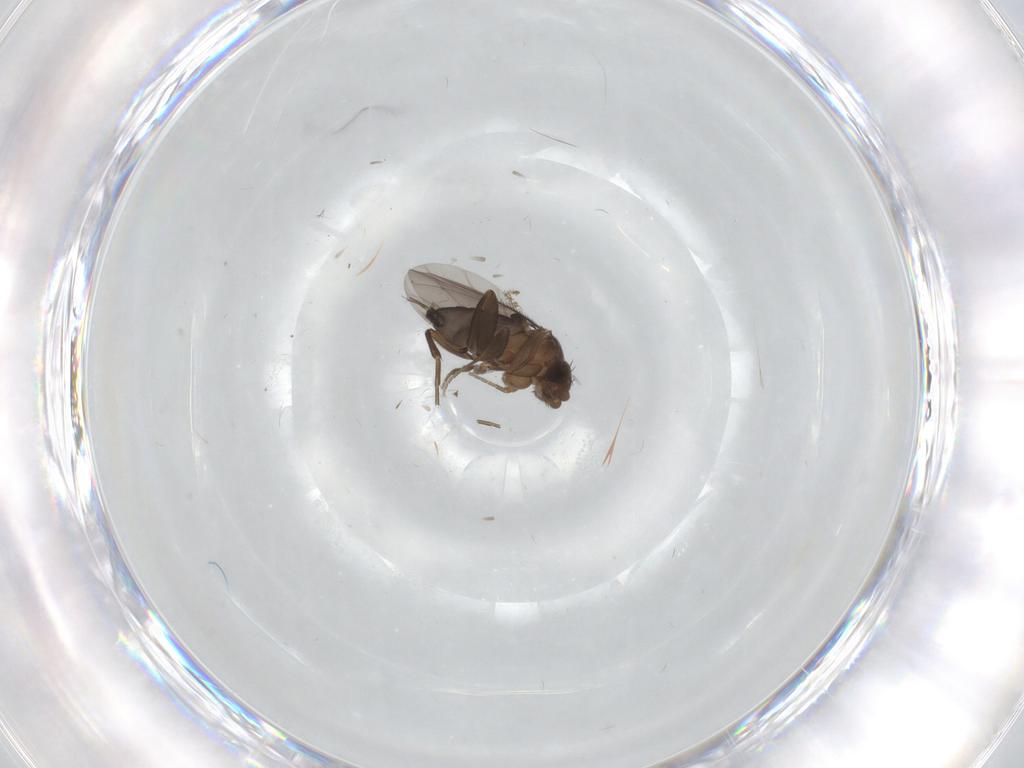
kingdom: Animalia
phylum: Arthropoda
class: Insecta
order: Diptera
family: Phoridae
